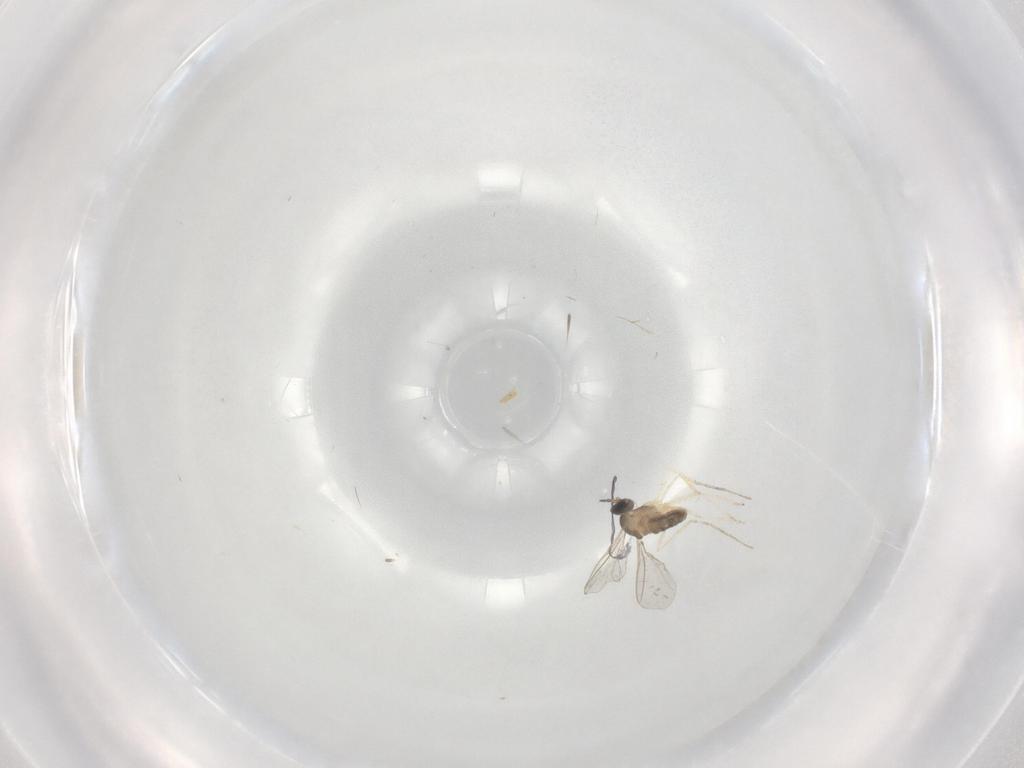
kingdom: Animalia
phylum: Arthropoda
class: Insecta
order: Diptera
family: Cecidomyiidae
